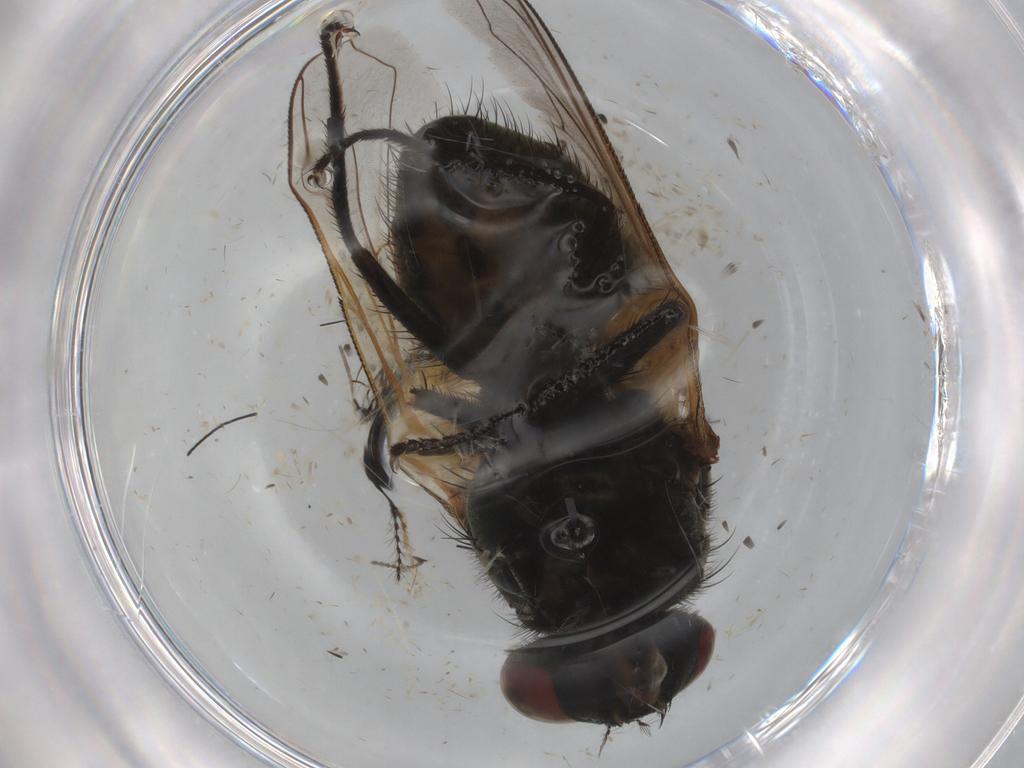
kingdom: Animalia
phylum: Arthropoda
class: Insecta
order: Diptera
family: Muscidae
